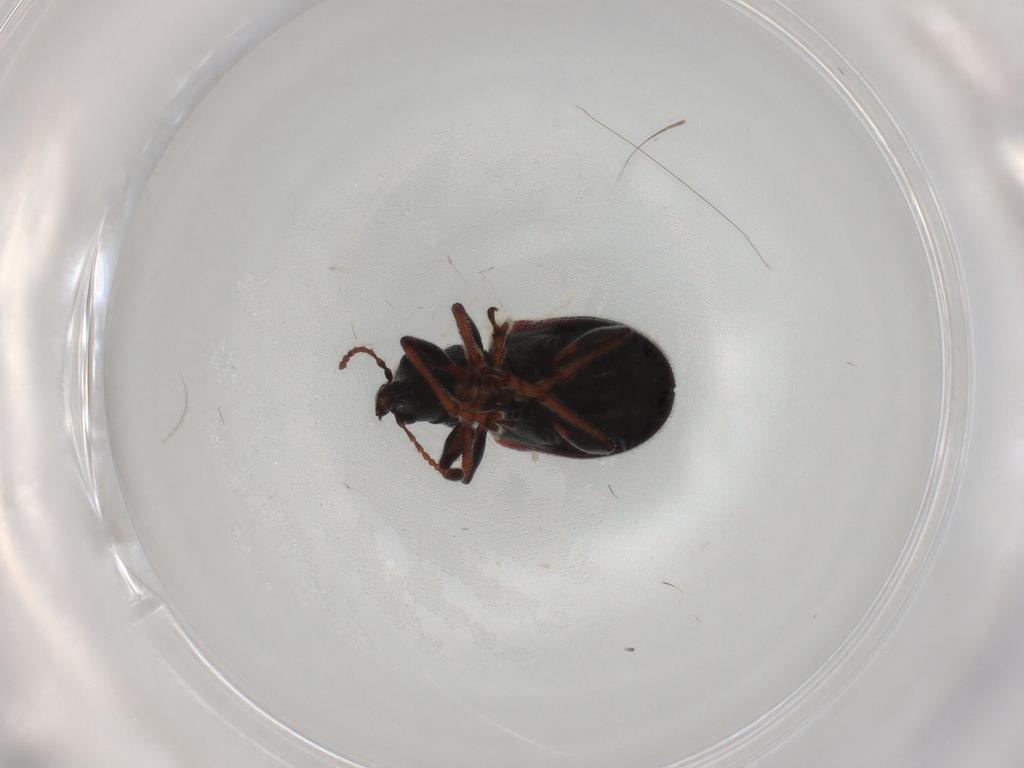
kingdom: Animalia
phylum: Arthropoda
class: Insecta
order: Coleoptera
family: Attelabidae
